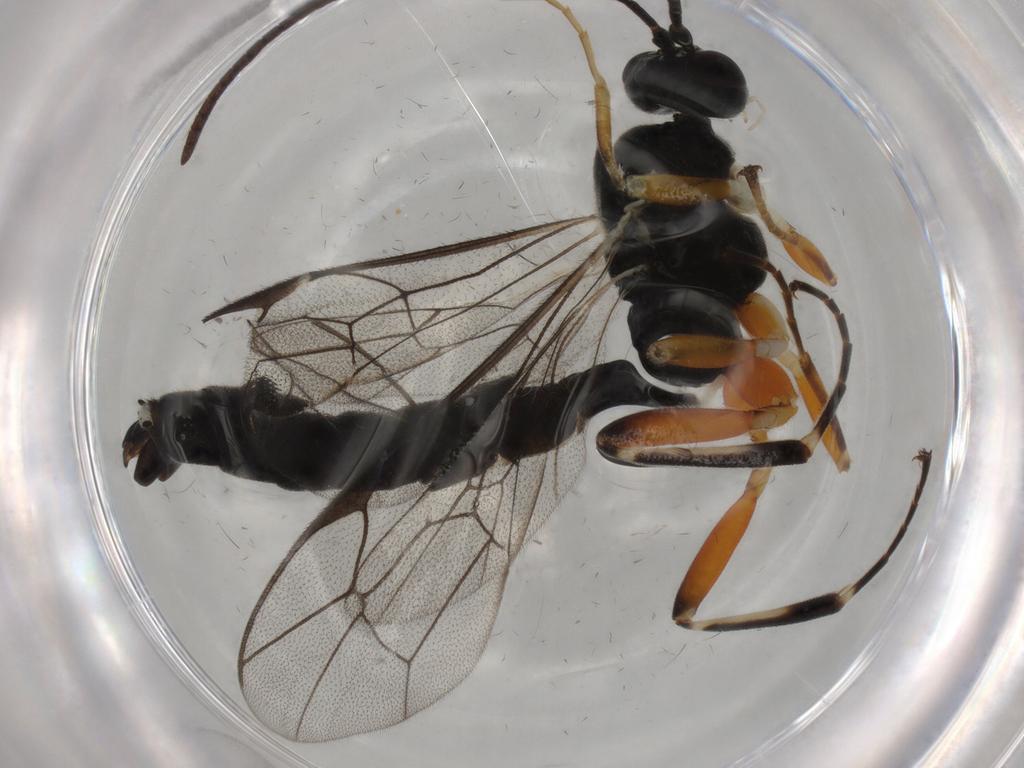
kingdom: Animalia
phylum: Arthropoda
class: Insecta
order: Hymenoptera
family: Ichneumonidae
